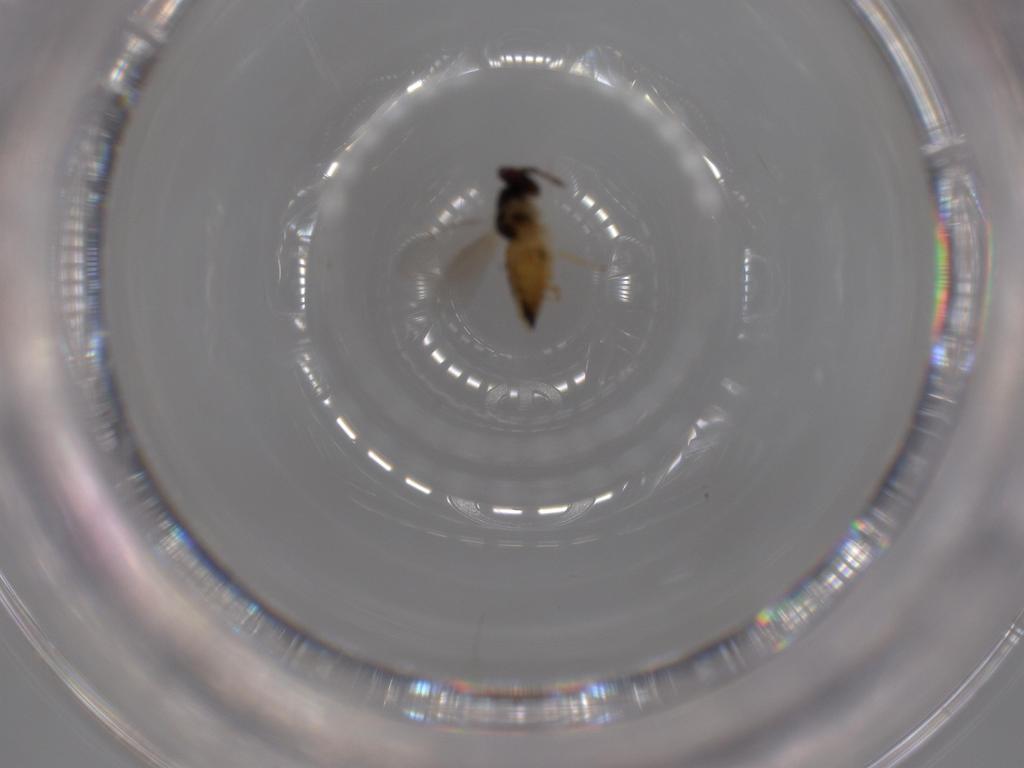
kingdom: Animalia
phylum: Arthropoda
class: Insecta
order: Hymenoptera
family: Eulophidae
